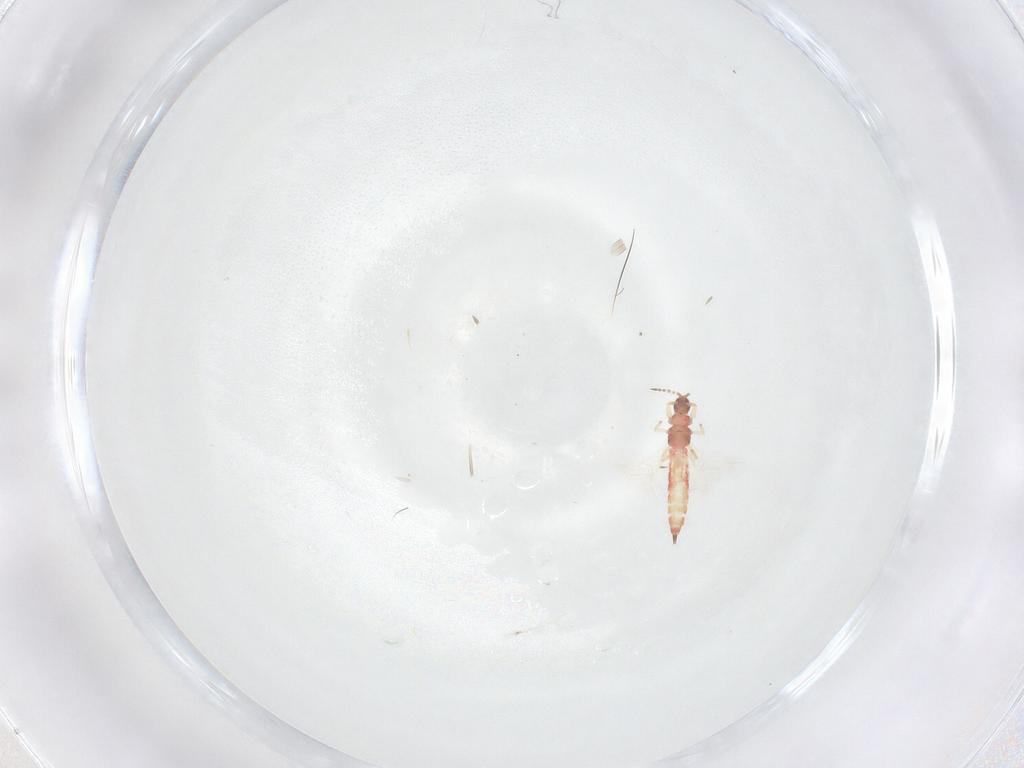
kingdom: Animalia
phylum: Arthropoda
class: Insecta
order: Thysanoptera
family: Phlaeothripidae
